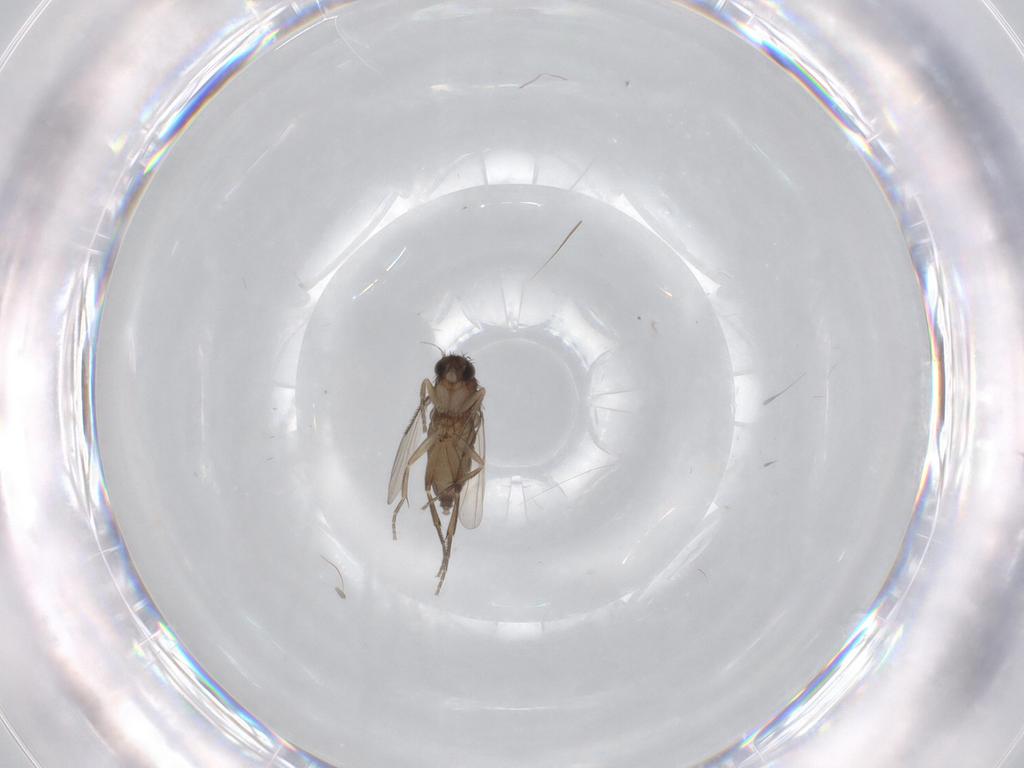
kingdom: Animalia
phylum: Arthropoda
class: Insecta
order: Diptera
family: Phoridae
